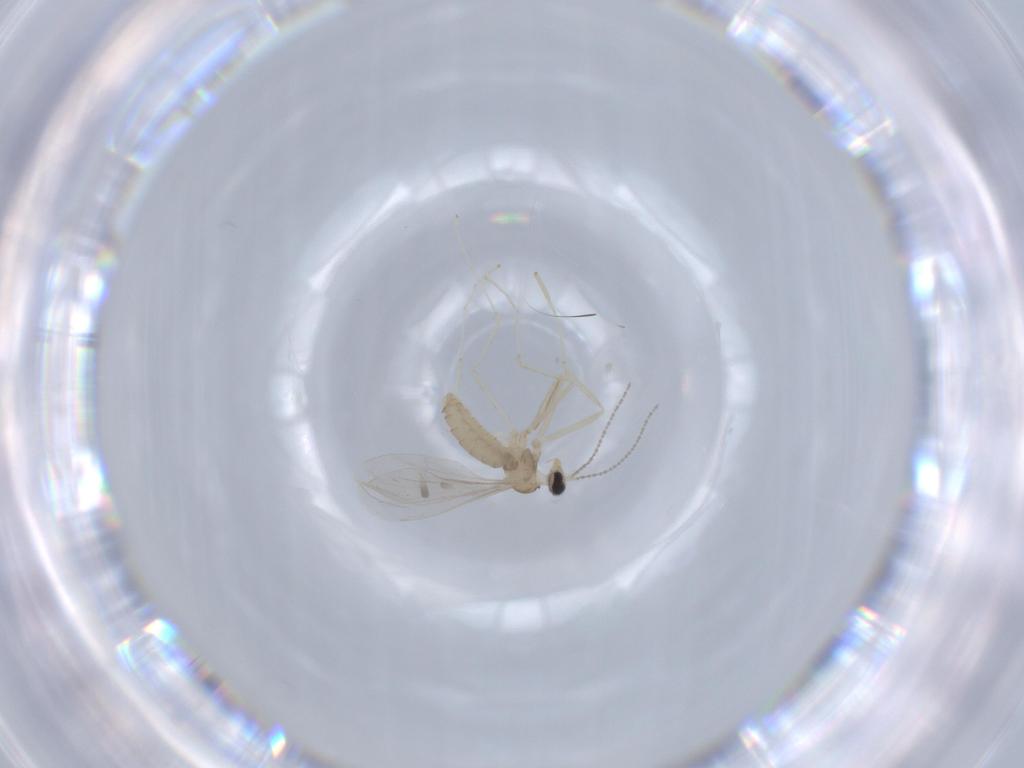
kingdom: Animalia
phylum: Arthropoda
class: Insecta
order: Diptera
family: Cecidomyiidae
